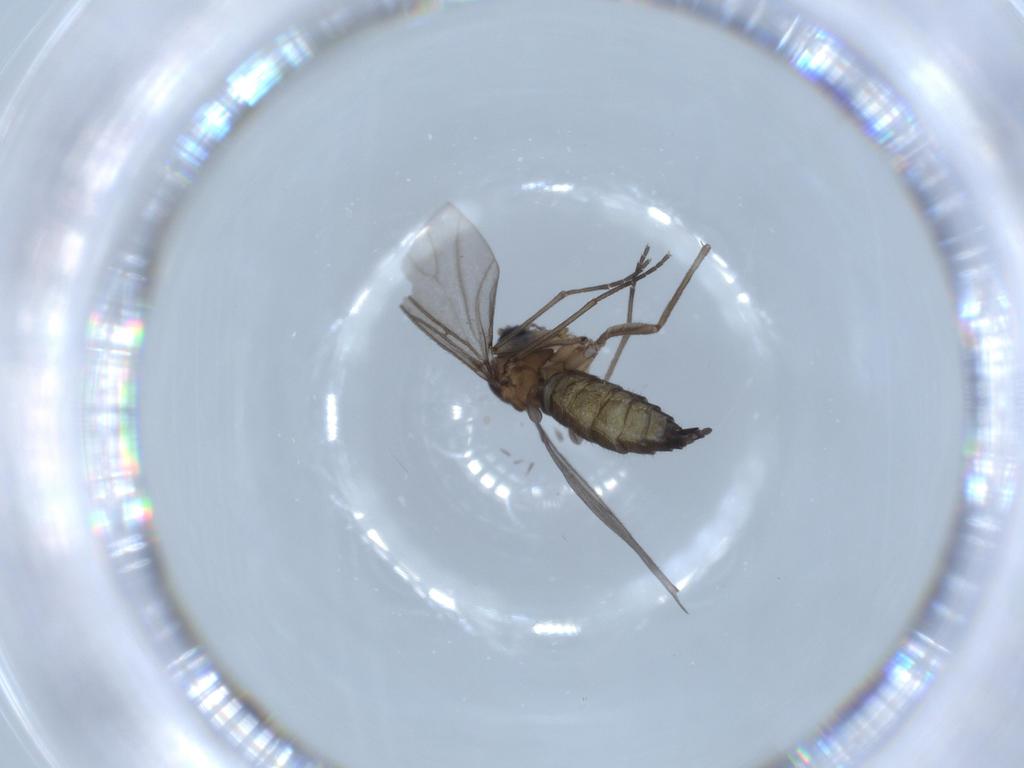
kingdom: Animalia
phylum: Arthropoda
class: Insecta
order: Diptera
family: Sciaridae
